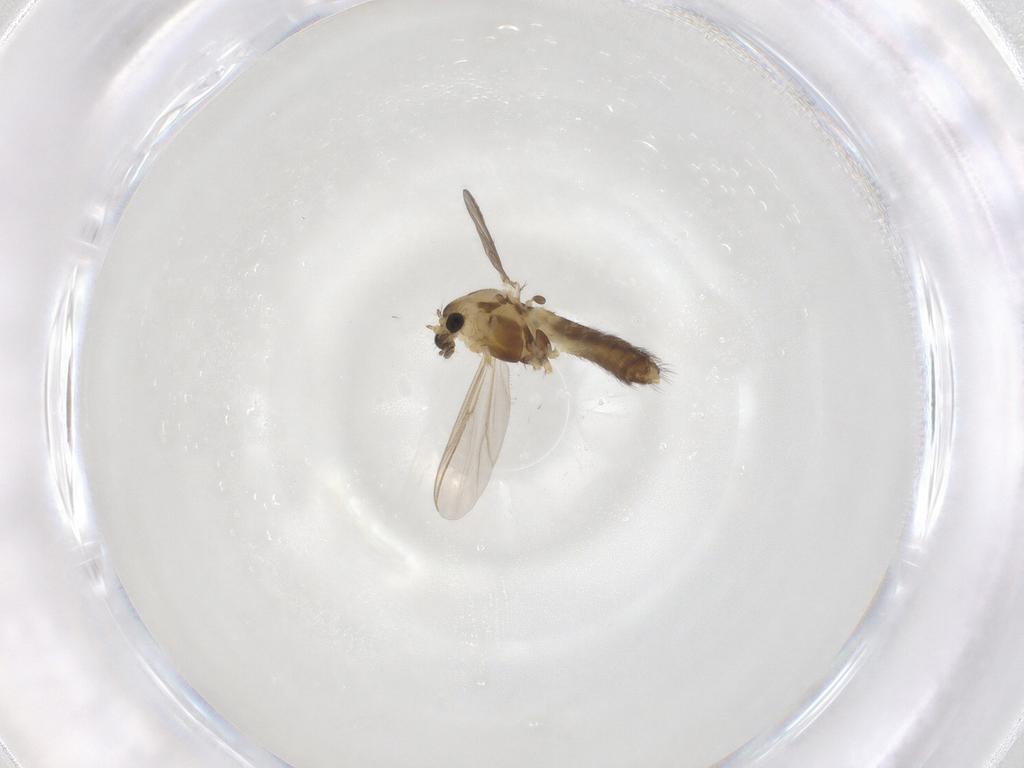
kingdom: Animalia
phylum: Arthropoda
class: Insecta
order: Diptera
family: Chironomidae
